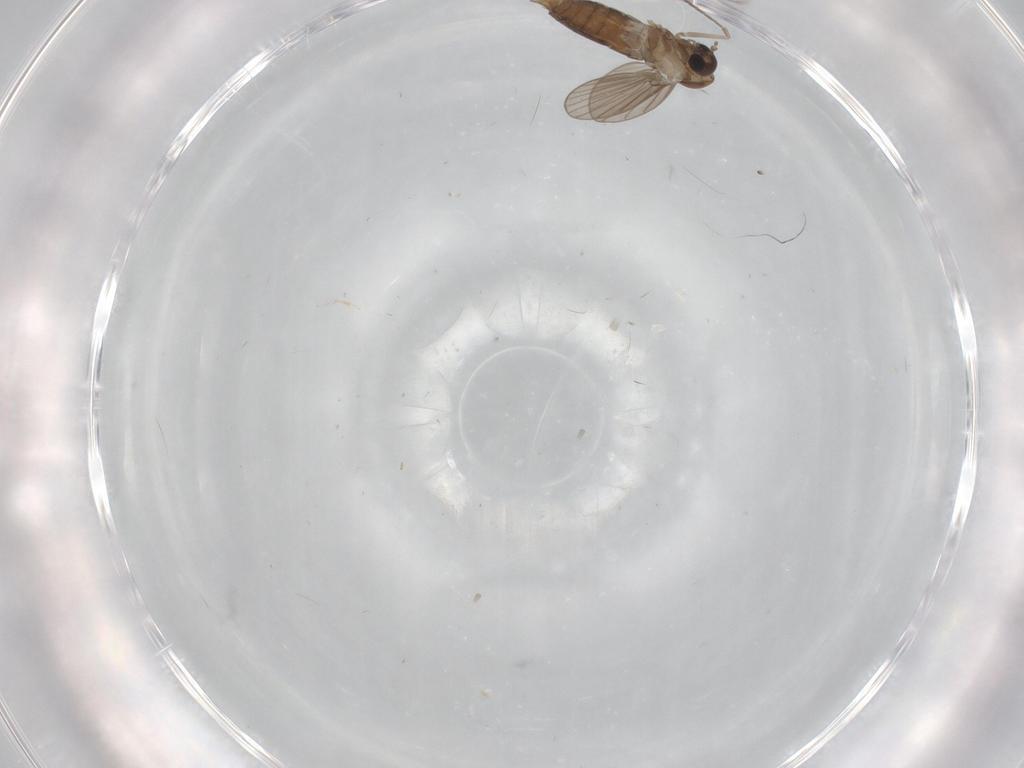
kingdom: Animalia
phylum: Arthropoda
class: Insecta
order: Diptera
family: Psychodidae
